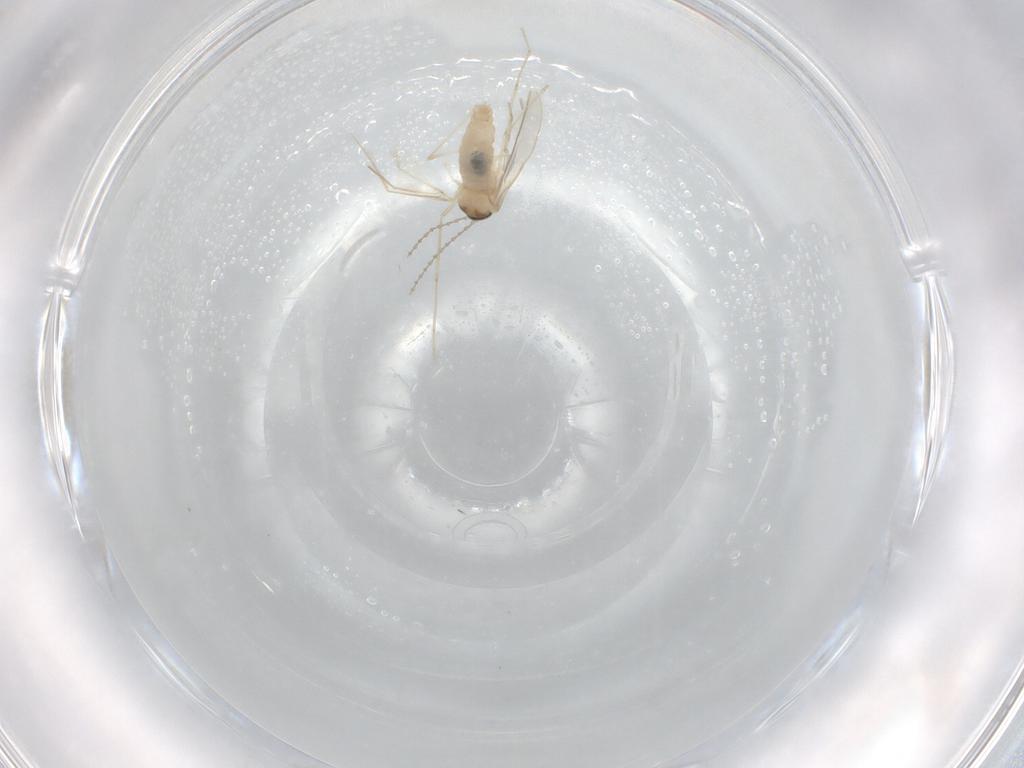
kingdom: Animalia
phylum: Arthropoda
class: Insecta
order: Diptera
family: Cecidomyiidae
